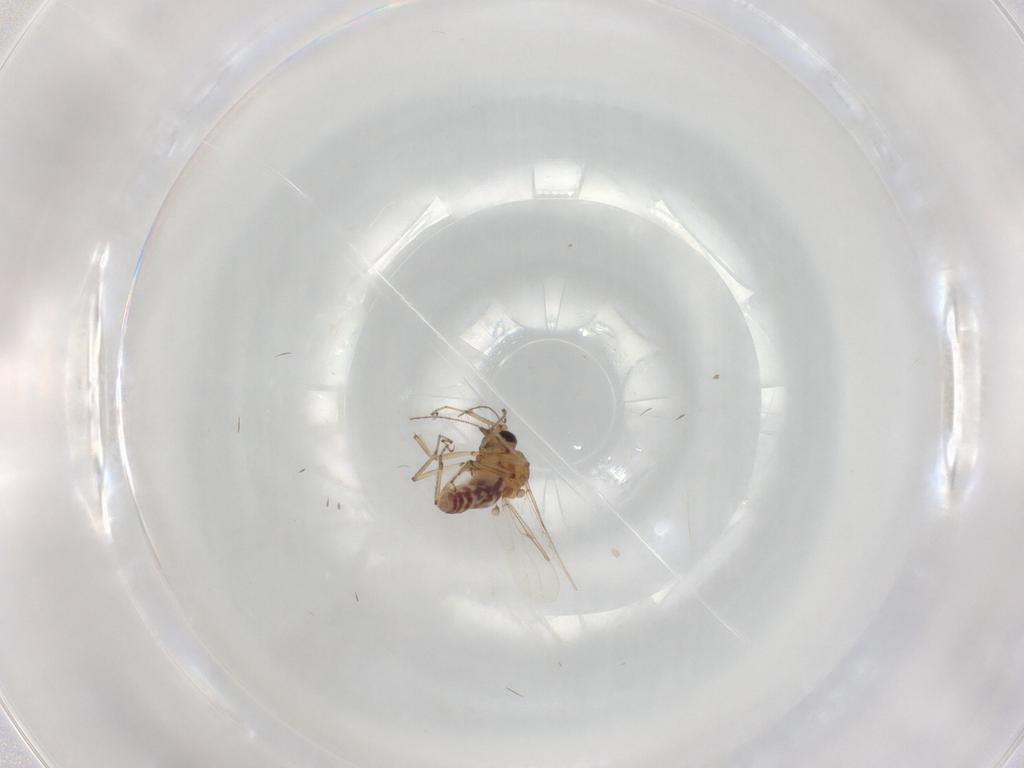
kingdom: Animalia
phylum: Arthropoda
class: Insecta
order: Diptera
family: Ceratopogonidae
